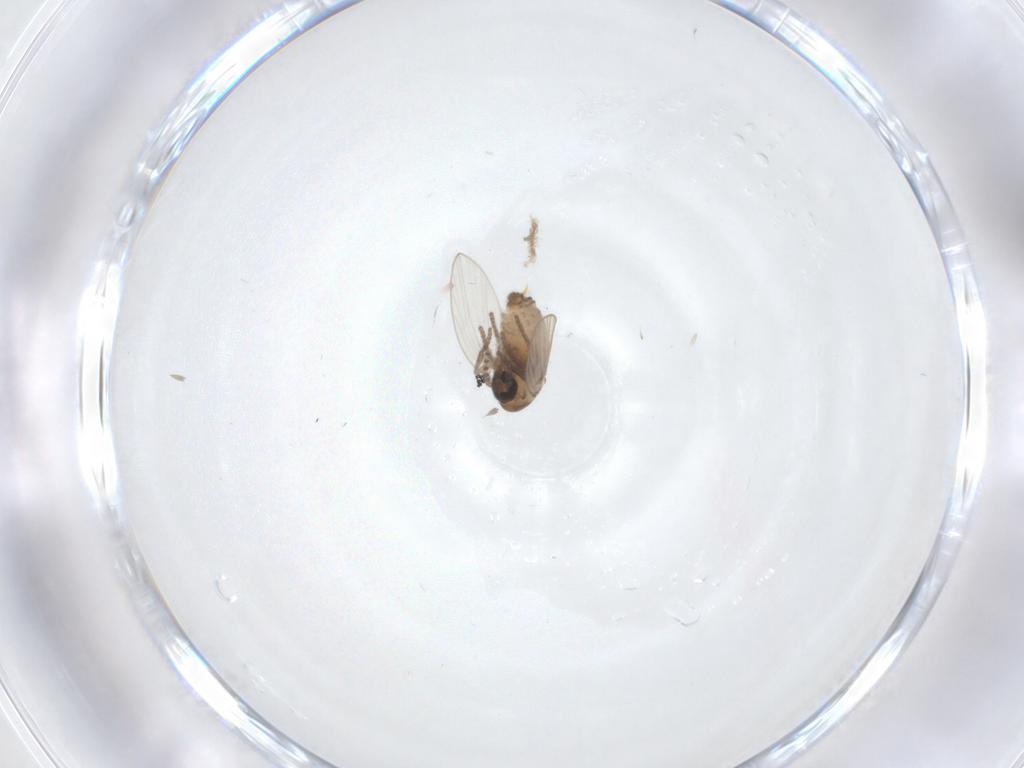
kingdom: Animalia
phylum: Arthropoda
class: Insecta
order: Diptera
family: Psychodidae
